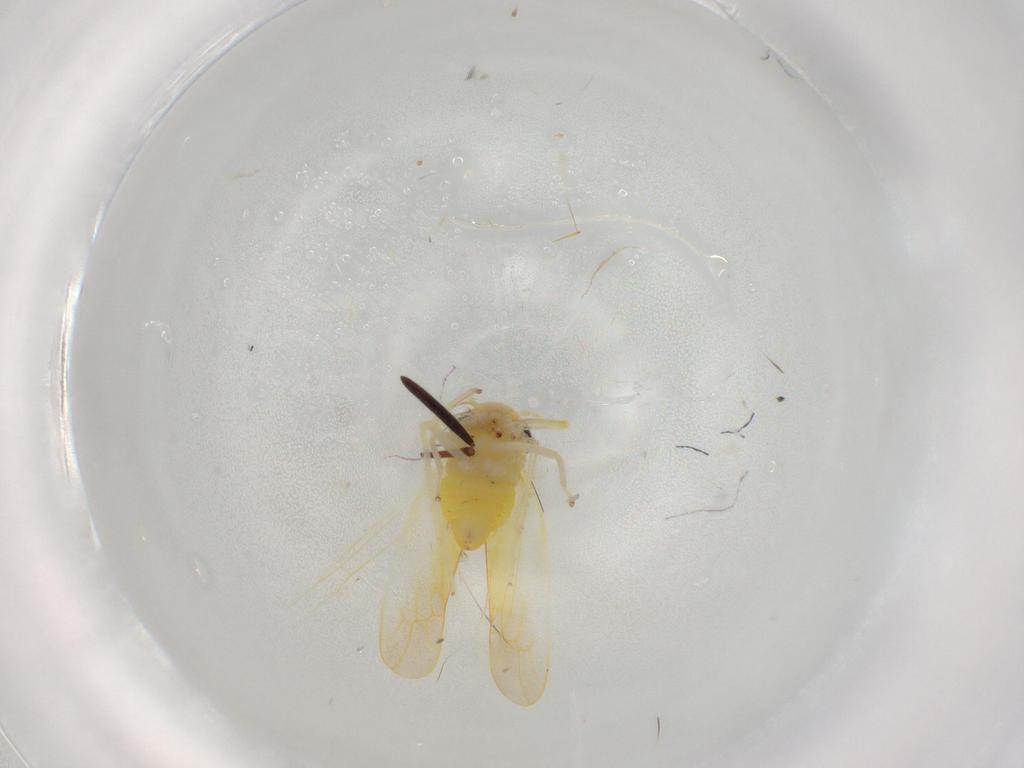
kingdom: Animalia
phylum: Arthropoda
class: Insecta
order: Hemiptera
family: Cicadellidae
